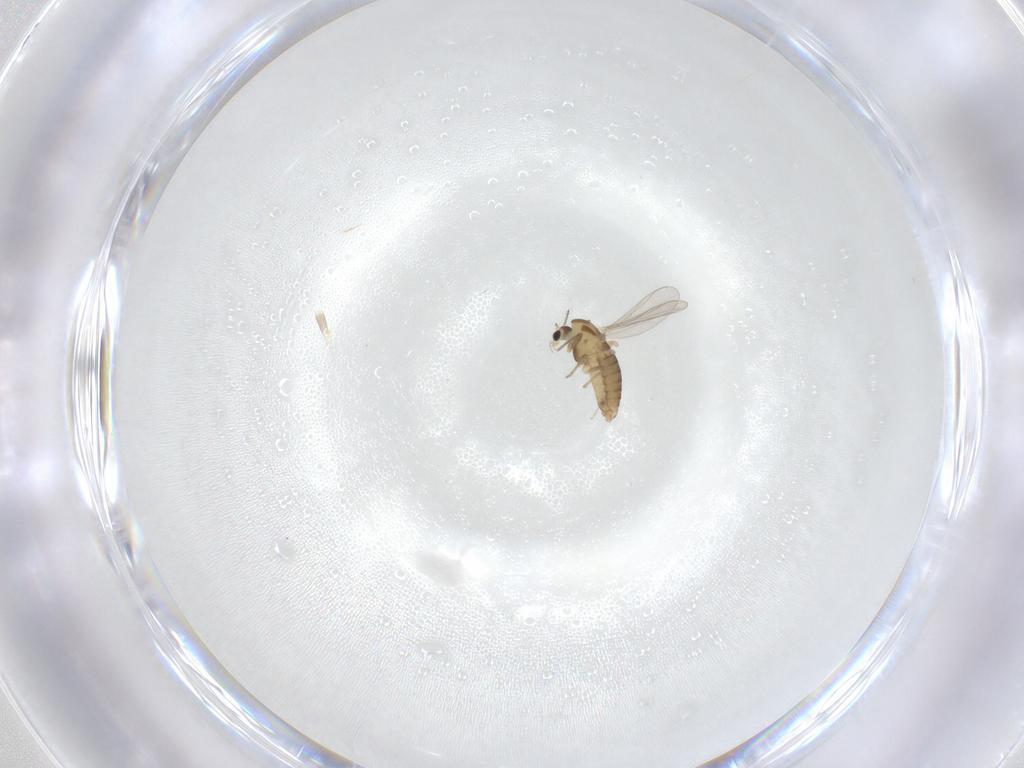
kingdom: Animalia
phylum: Arthropoda
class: Insecta
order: Diptera
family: Chironomidae
